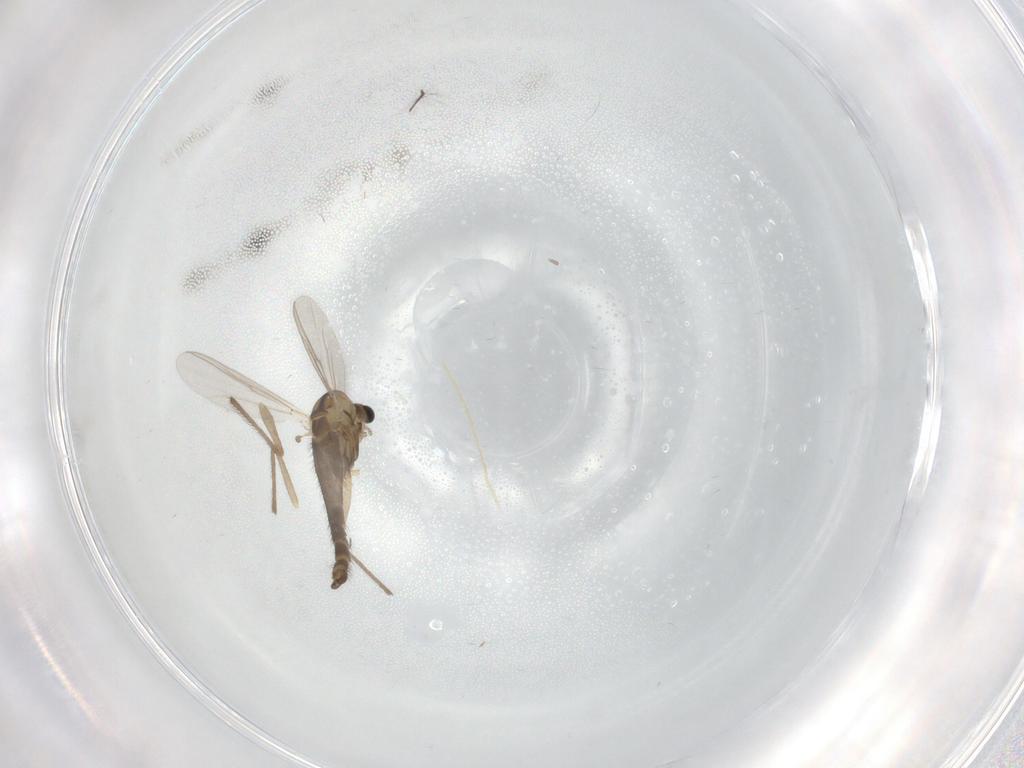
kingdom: Animalia
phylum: Arthropoda
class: Insecta
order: Diptera
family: Chironomidae
